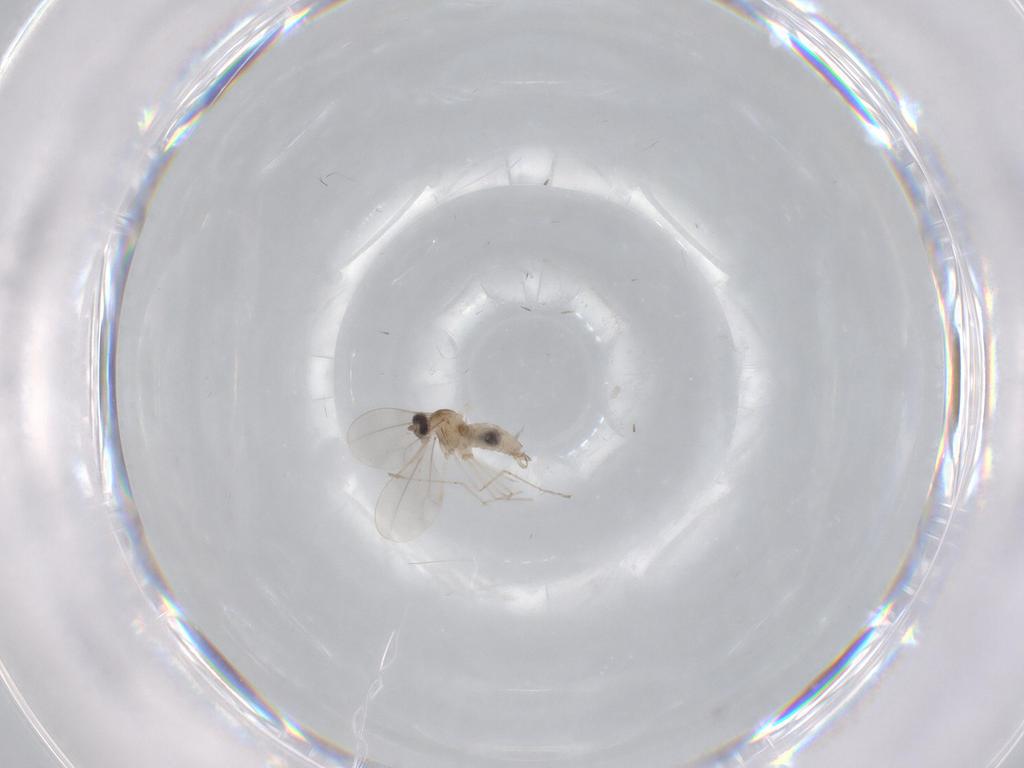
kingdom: Animalia
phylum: Arthropoda
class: Insecta
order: Diptera
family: Cecidomyiidae
